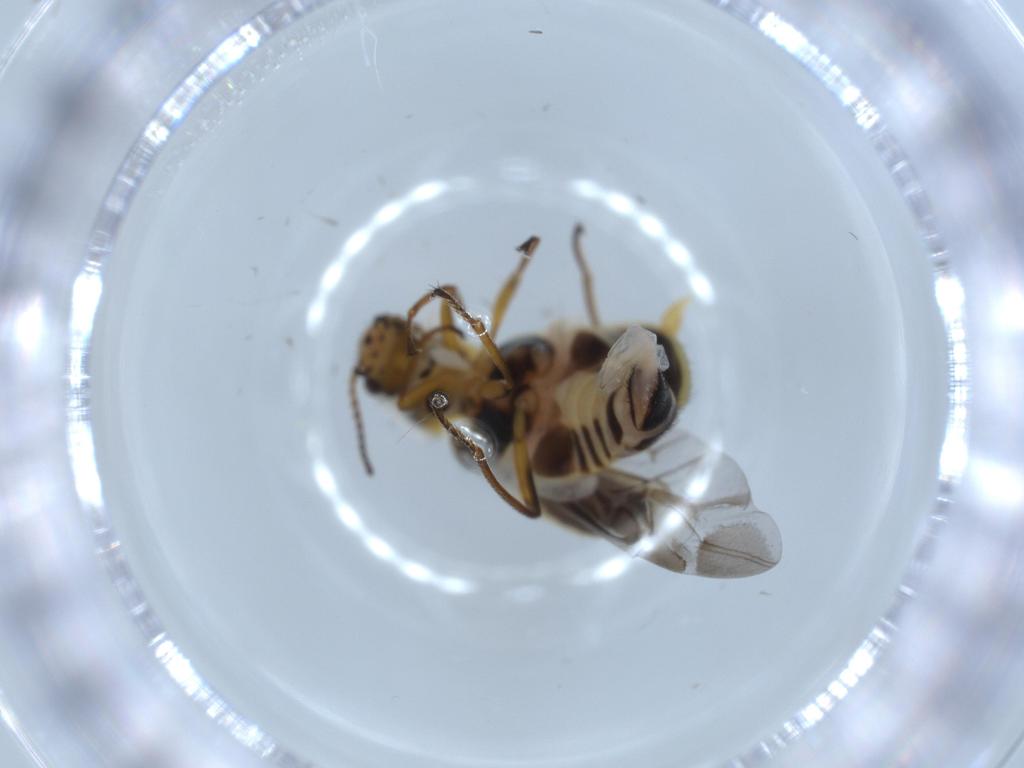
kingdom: Animalia
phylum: Arthropoda
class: Insecta
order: Coleoptera
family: Melyridae
